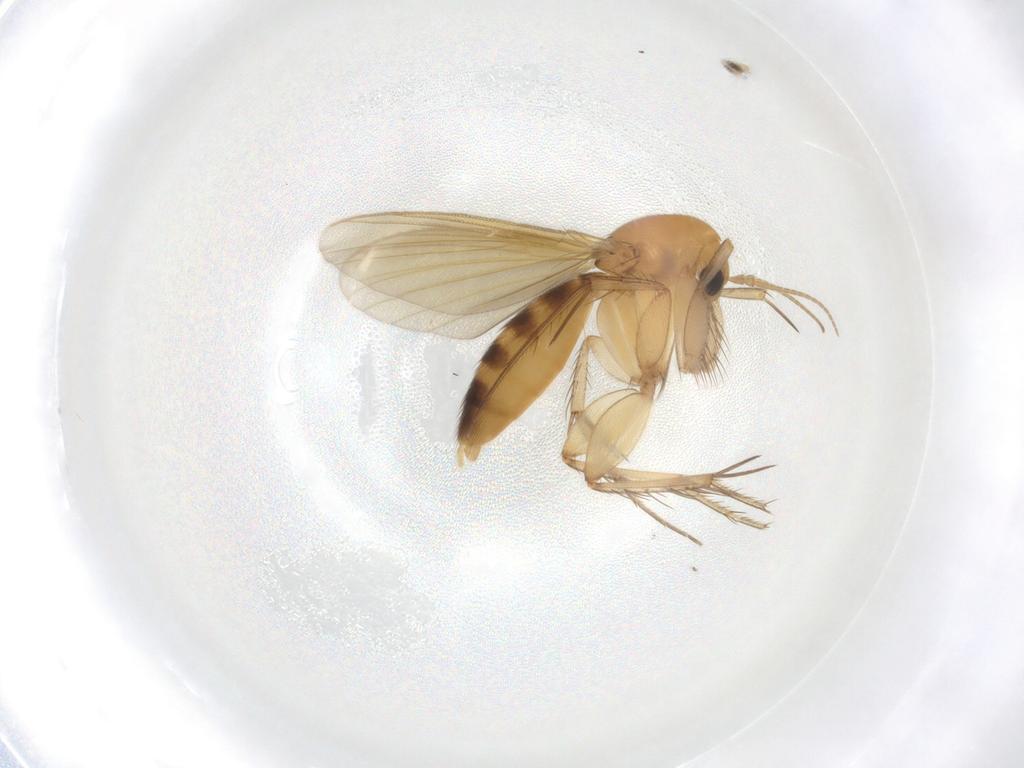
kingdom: Animalia
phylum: Arthropoda
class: Insecta
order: Diptera
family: Mycetophilidae
